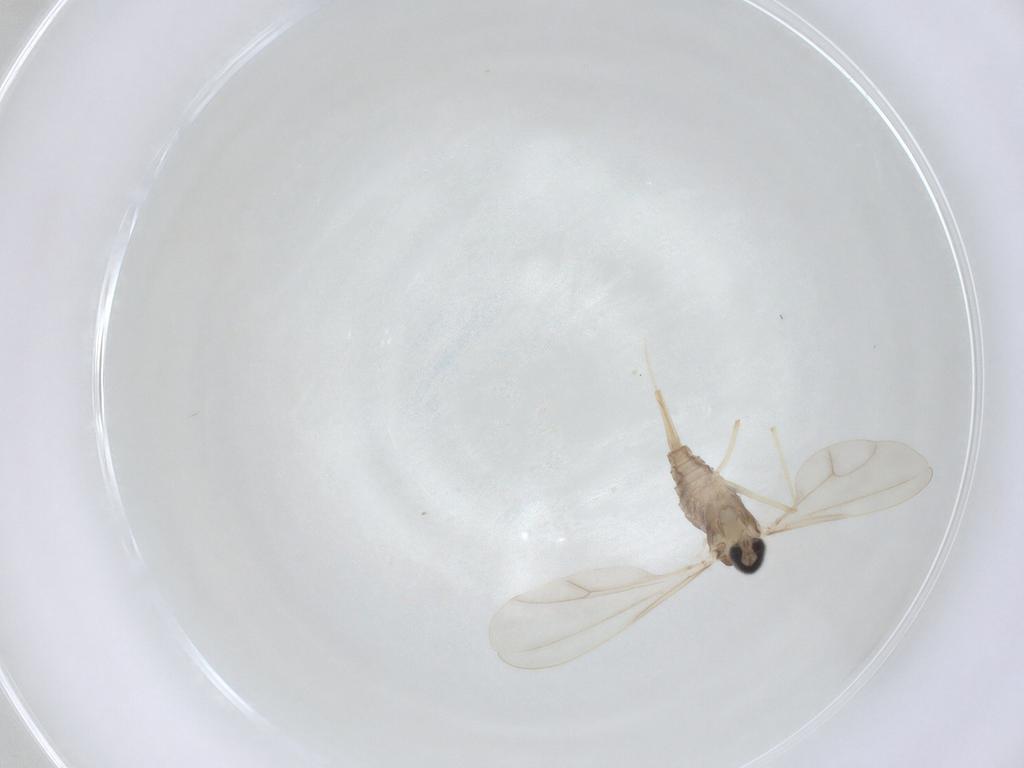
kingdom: Animalia
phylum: Arthropoda
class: Insecta
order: Diptera
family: Cecidomyiidae
